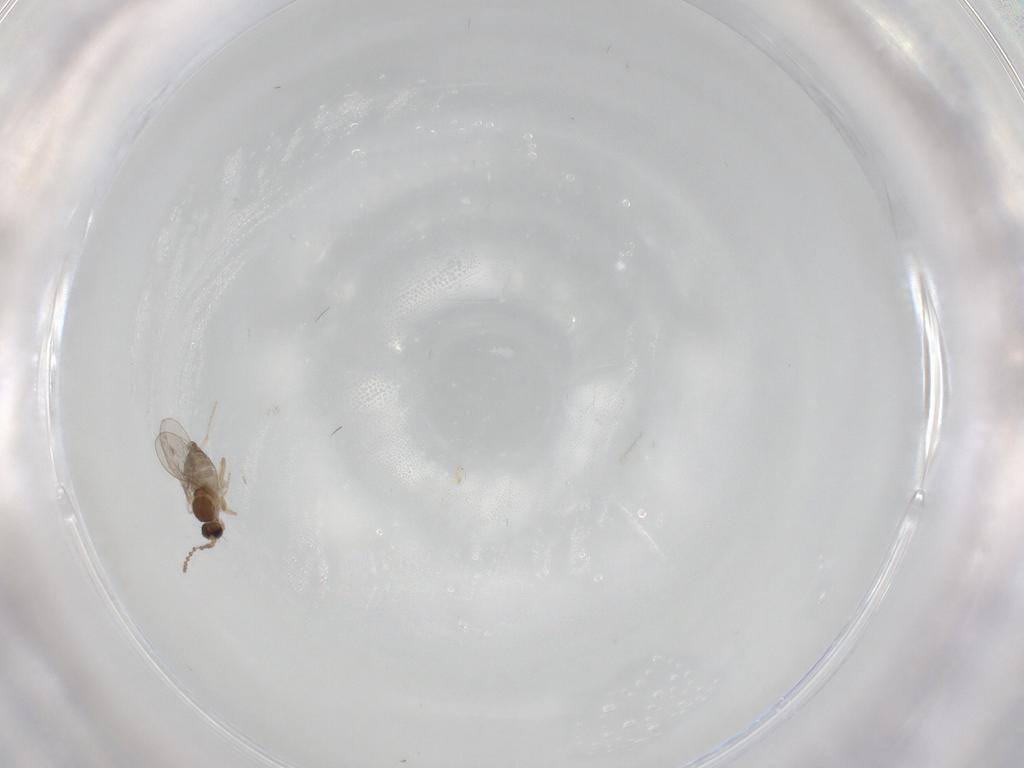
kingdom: Animalia
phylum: Arthropoda
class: Insecta
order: Diptera
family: Cecidomyiidae
